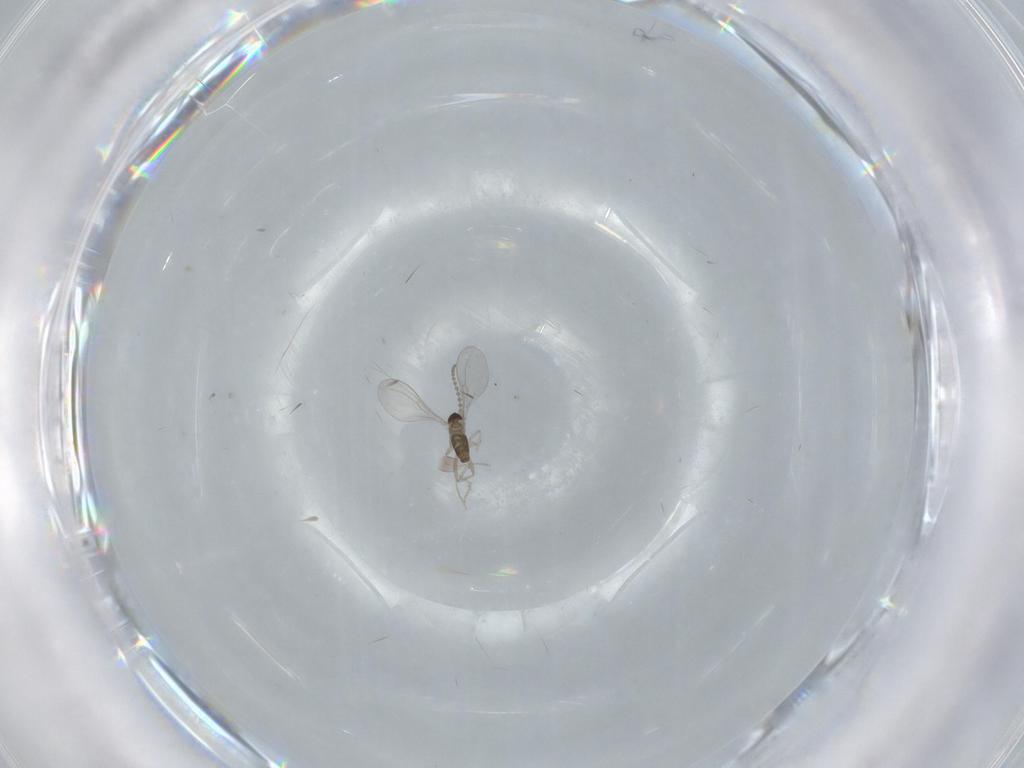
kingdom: Animalia
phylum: Arthropoda
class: Insecta
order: Diptera
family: Cecidomyiidae
